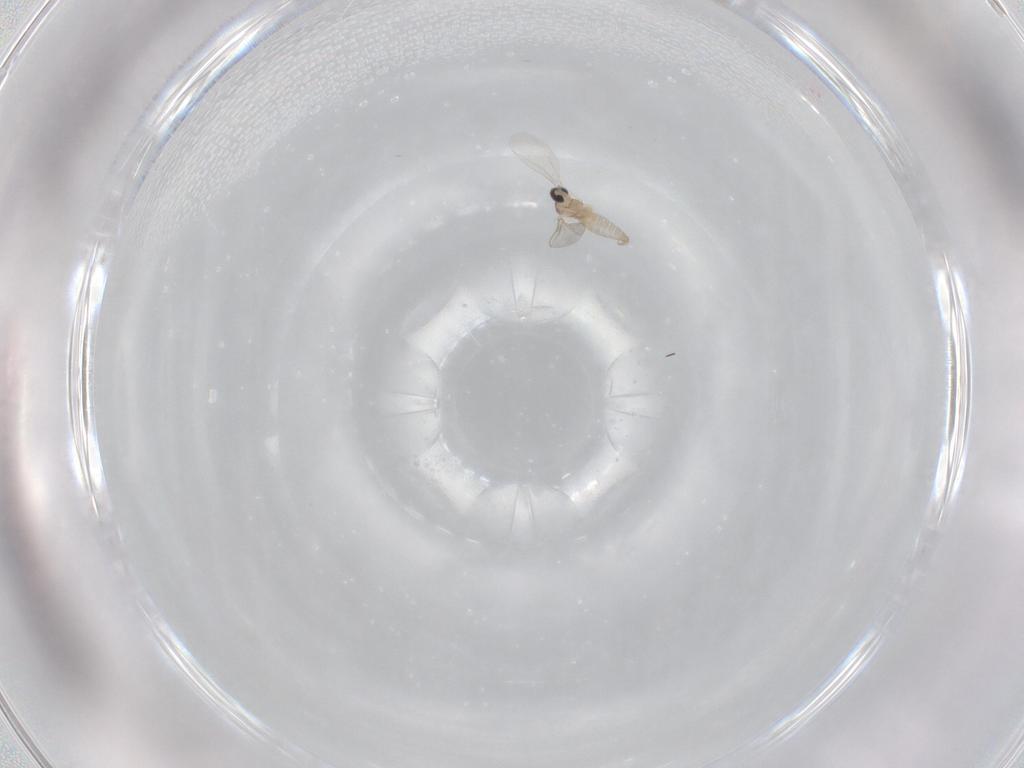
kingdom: Animalia
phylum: Arthropoda
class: Insecta
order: Diptera
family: Cecidomyiidae
